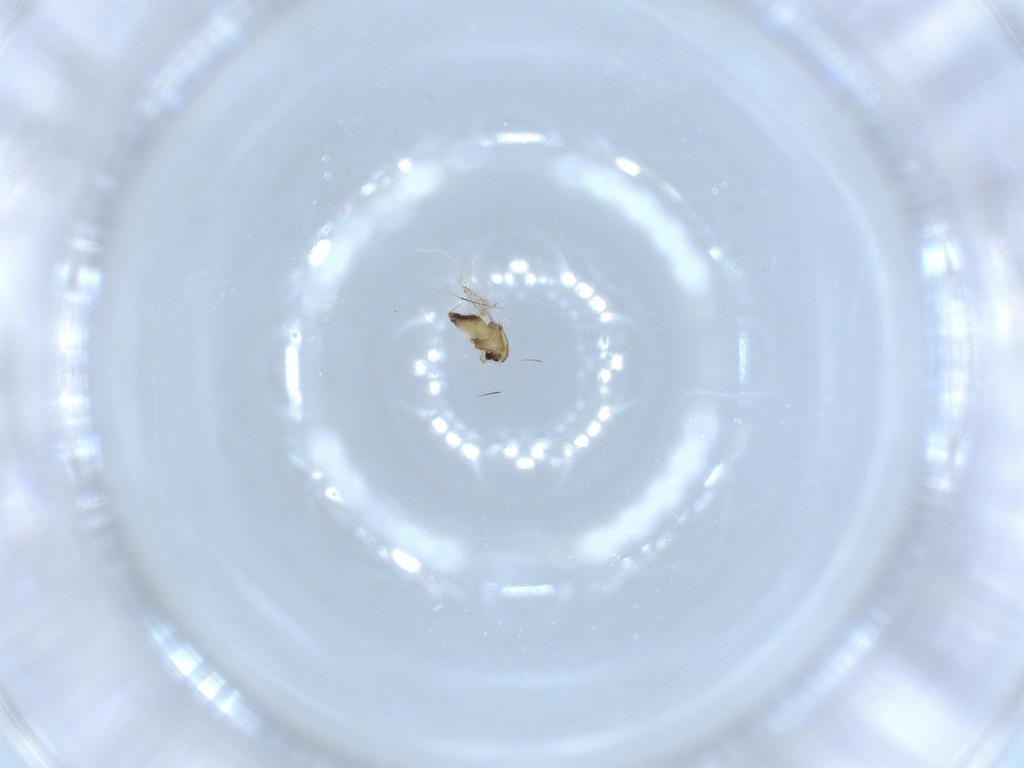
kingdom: Animalia
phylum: Arthropoda
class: Insecta
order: Diptera
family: Chironomidae
